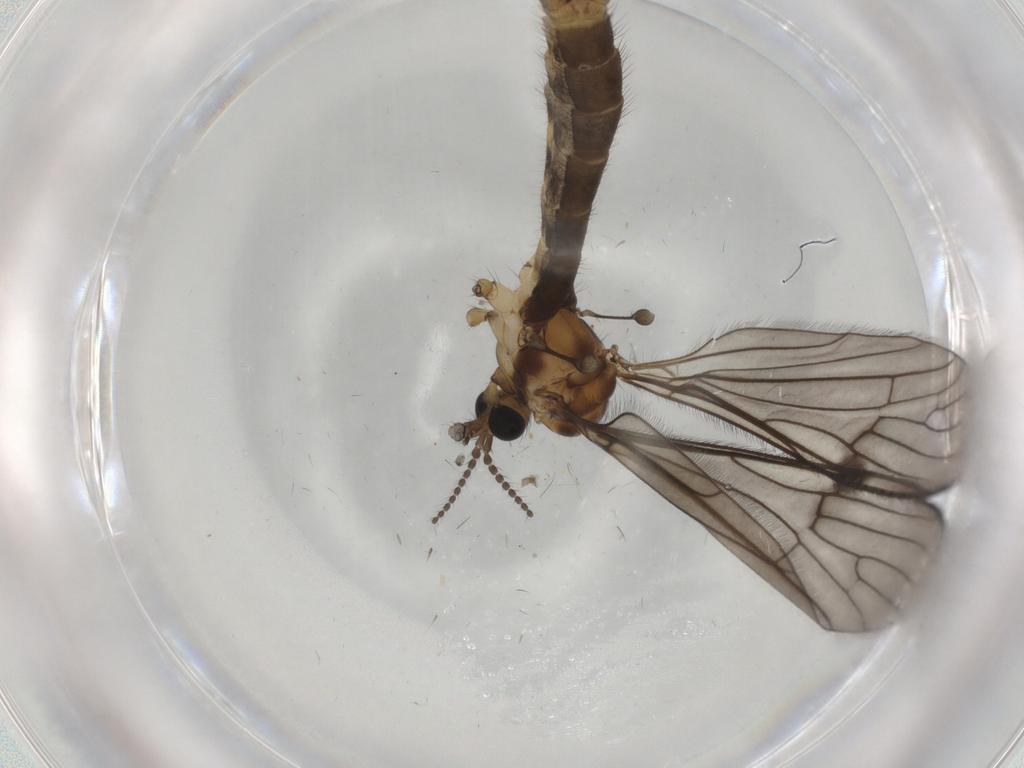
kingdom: Animalia
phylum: Arthropoda
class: Insecta
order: Diptera
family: Limoniidae
